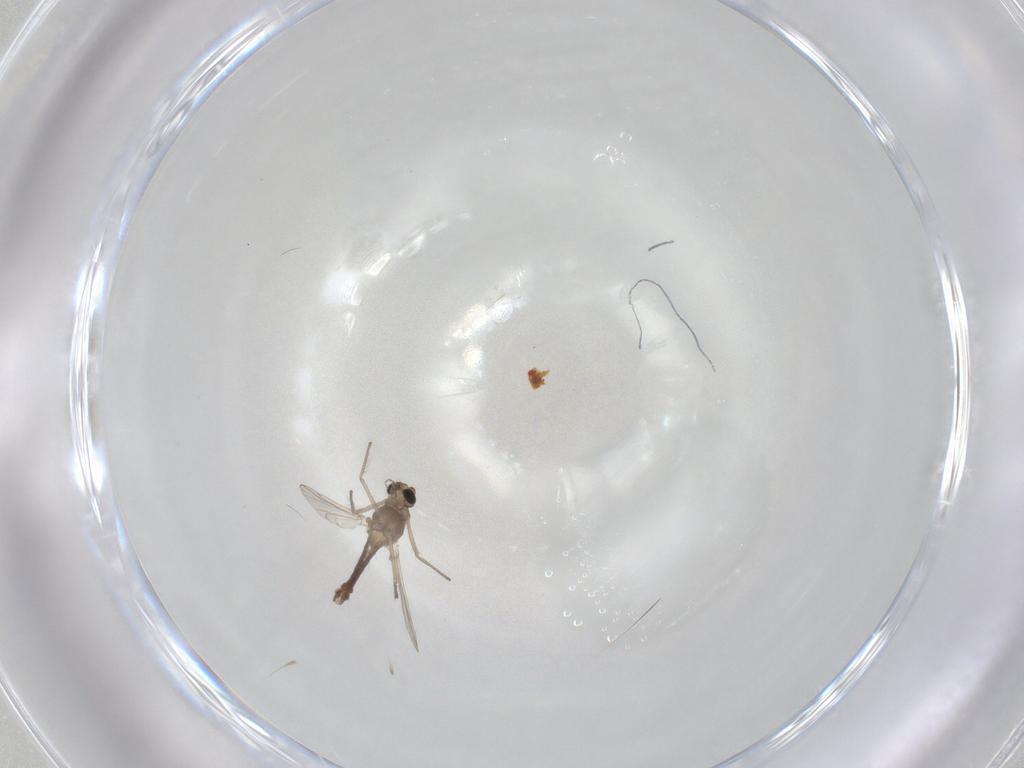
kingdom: Animalia
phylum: Arthropoda
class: Insecta
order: Diptera
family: Chironomidae
